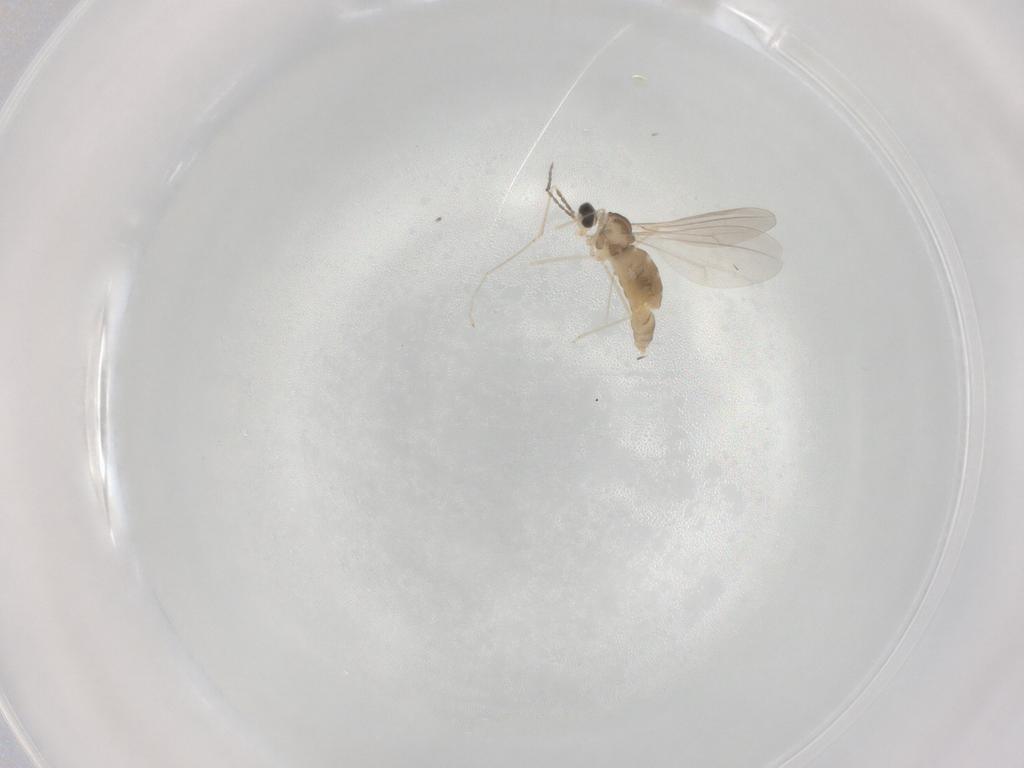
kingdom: Animalia
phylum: Arthropoda
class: Insecta
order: Diptera
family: Cecidomyiidae
